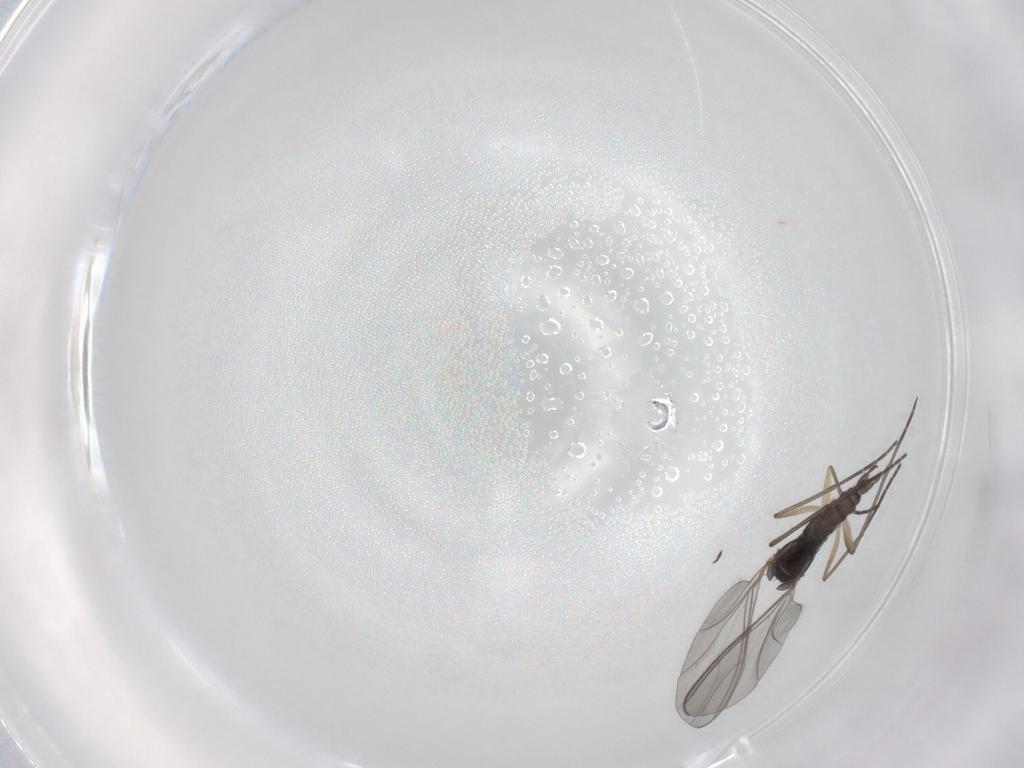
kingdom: Animalia
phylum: Arthropoda
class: Insecta
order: Diptera
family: Sciaridae
